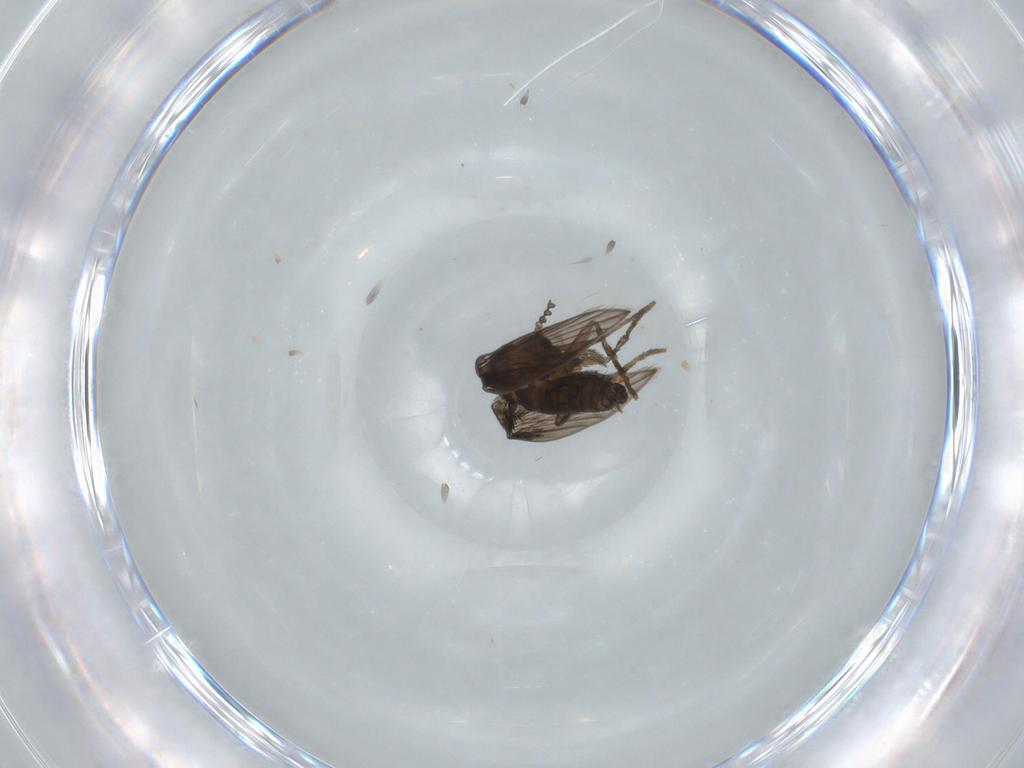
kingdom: Animalia
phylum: Arthropoda
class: Insecta
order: Diptera
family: Psychodidae
